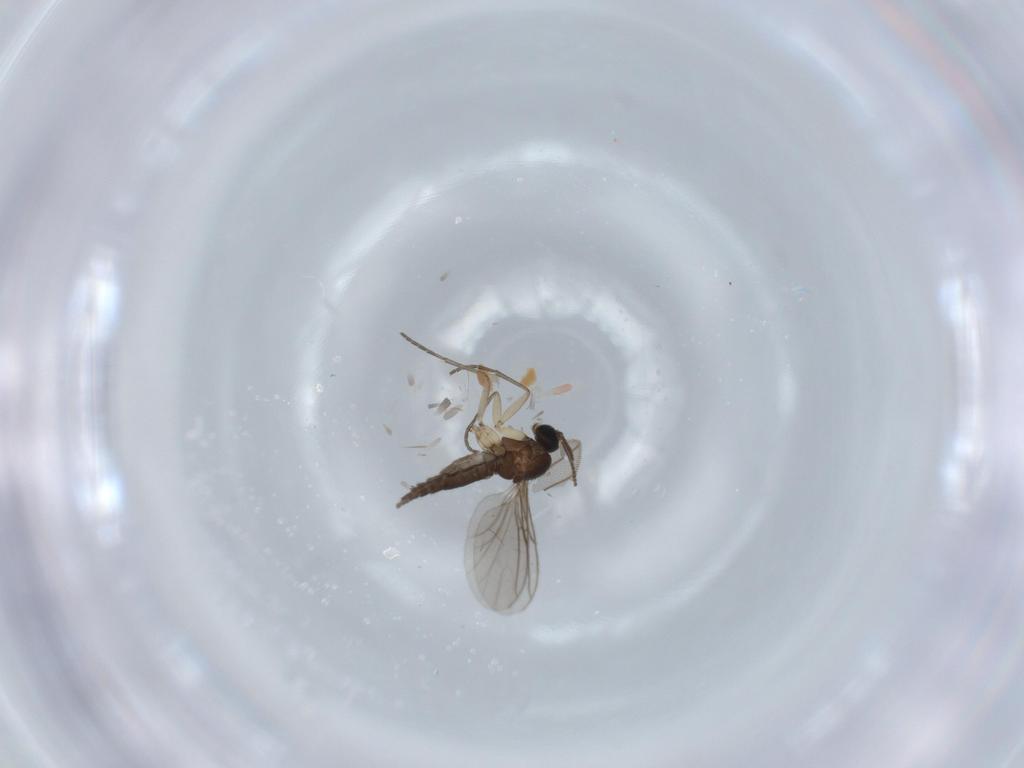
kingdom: Animalia
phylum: Arthropoda
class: Insecta
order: Diptera
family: Sciaridae
